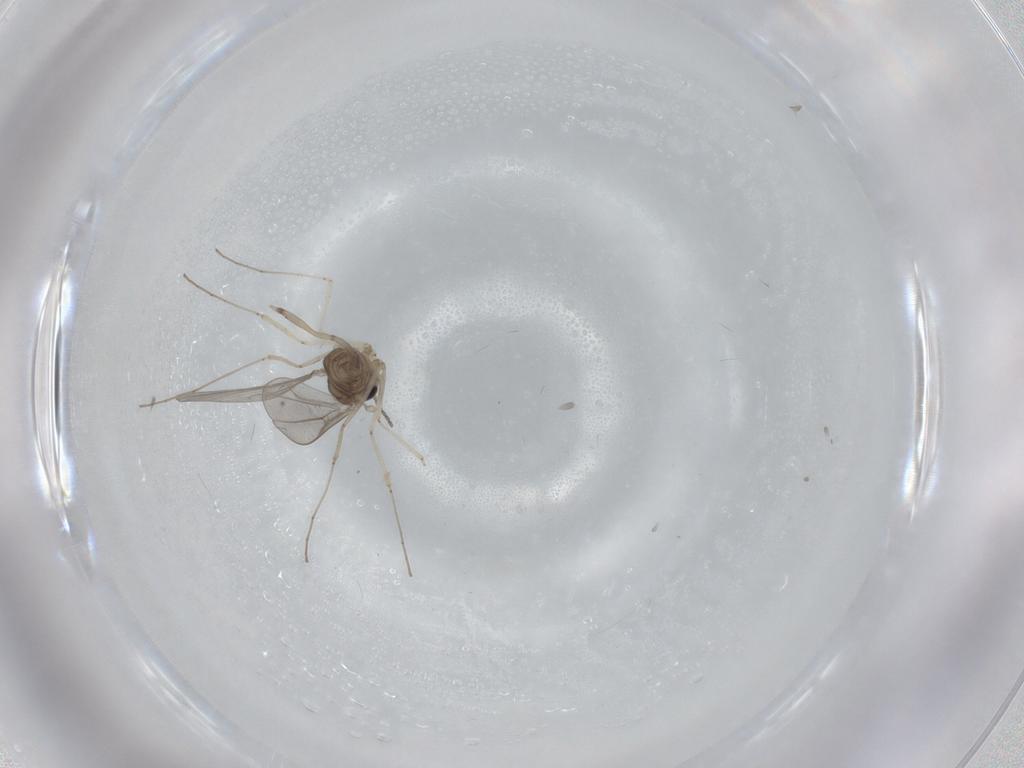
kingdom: Animalia
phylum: Arthropoda
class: Insecta
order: Diptera
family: Cecidomyiidae
